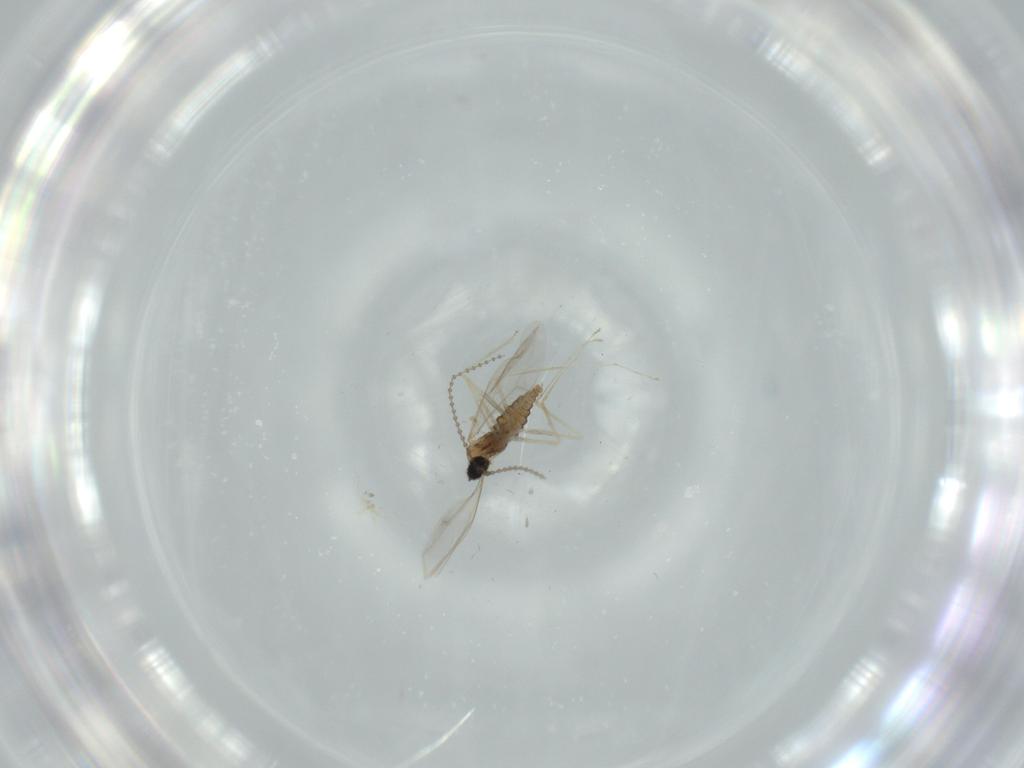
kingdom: Animalia
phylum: Arthropoda
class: Insecta
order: Diptera
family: Cecidomyiidae
